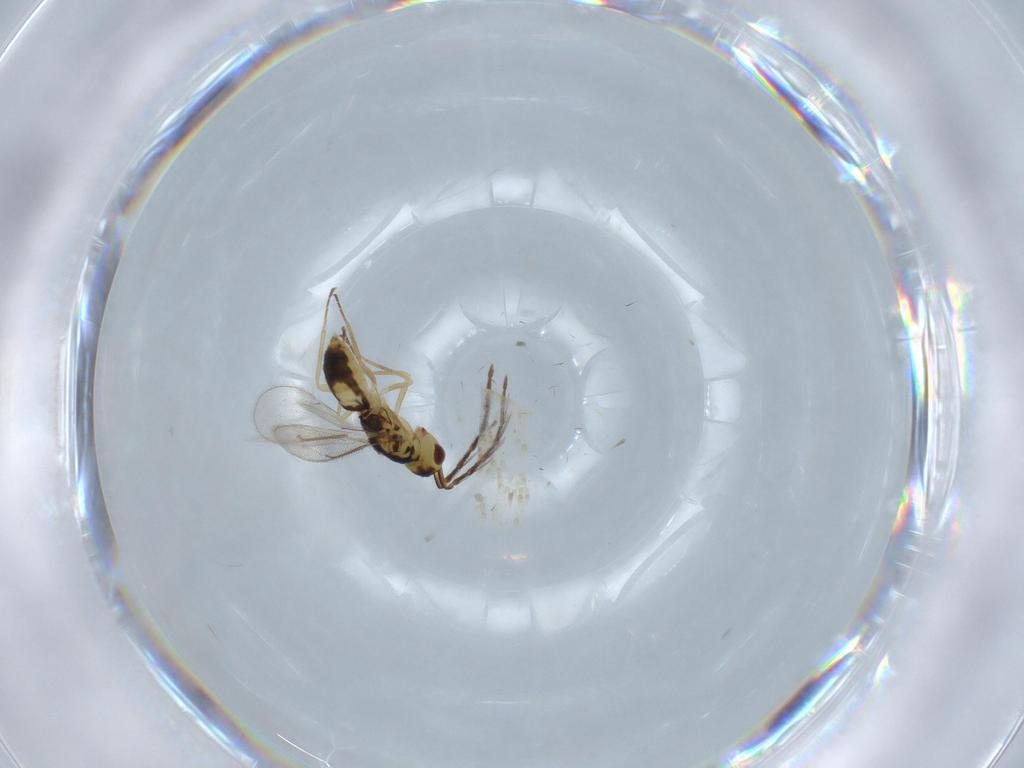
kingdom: Animalia
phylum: Arthropoda
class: Insecta
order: Hymenoptera
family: Eulophidae
